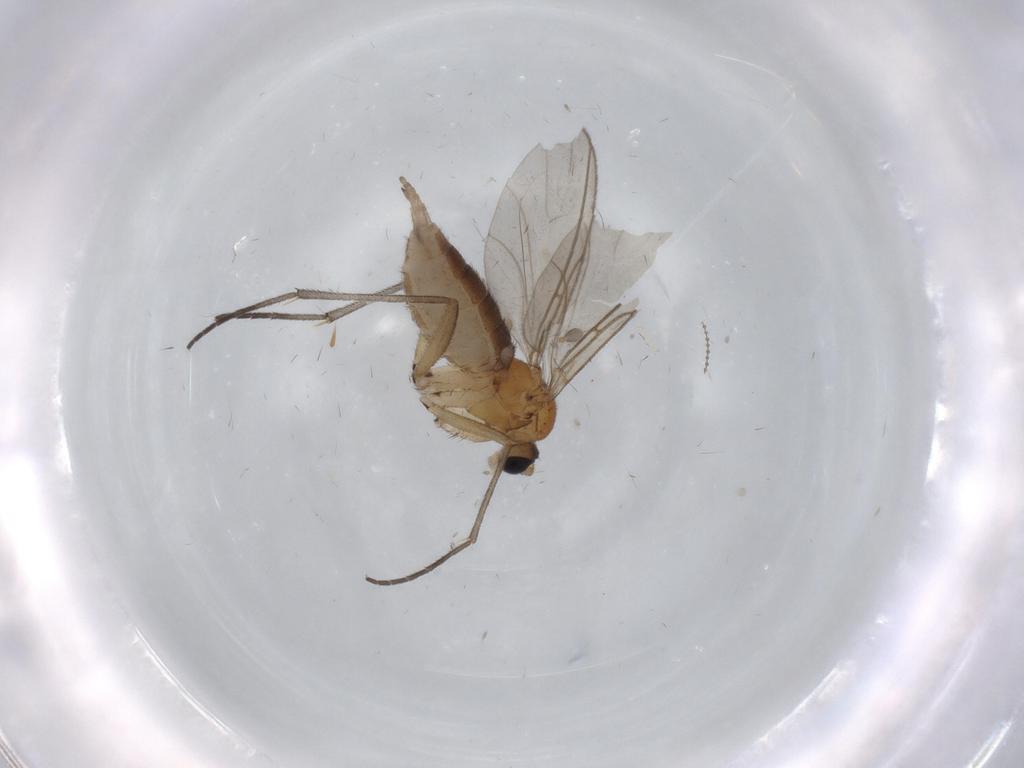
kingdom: Animalia
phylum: Arthropoda
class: Insecta
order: Diptera
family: Sciaridae
